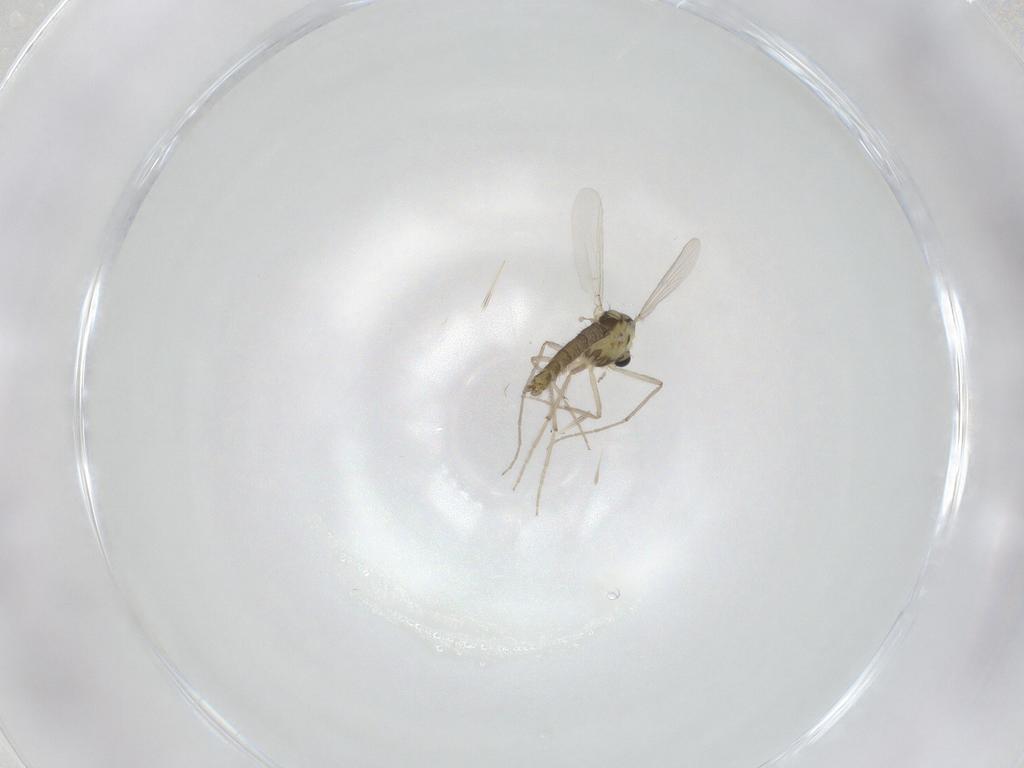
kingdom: Animalia
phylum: Arthropoda
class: Insecta
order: Diptera
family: Chironomidae
